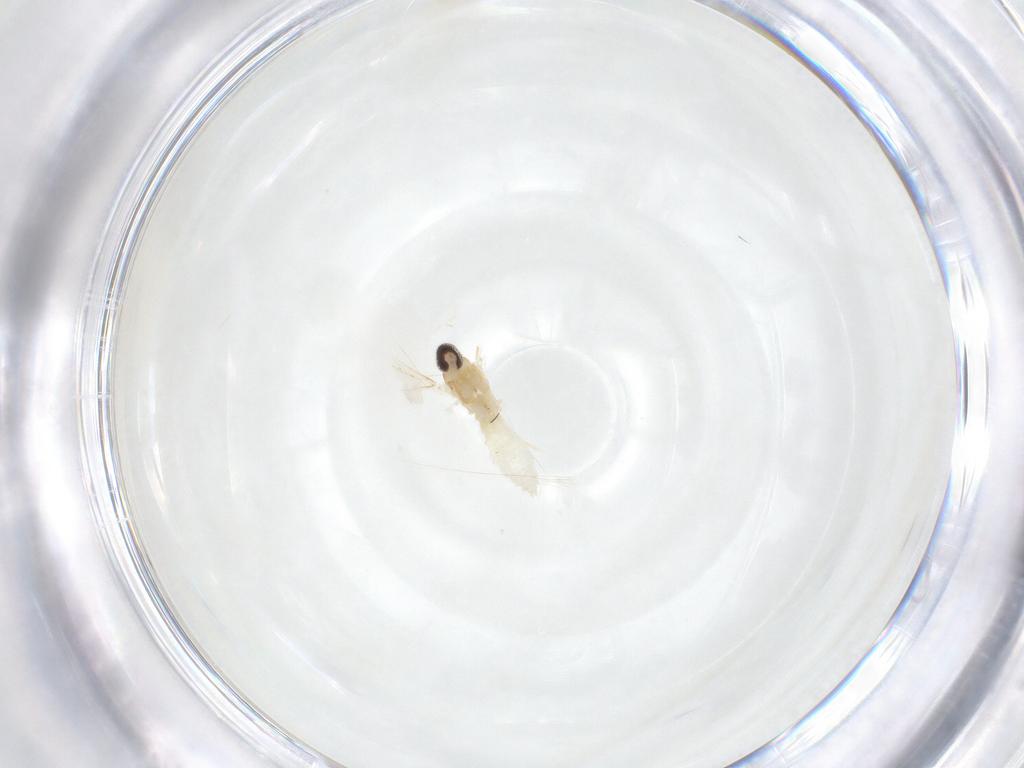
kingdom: Animalia
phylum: Arthropoda
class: Insecta
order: Diptera
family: Cecidomyiidae
